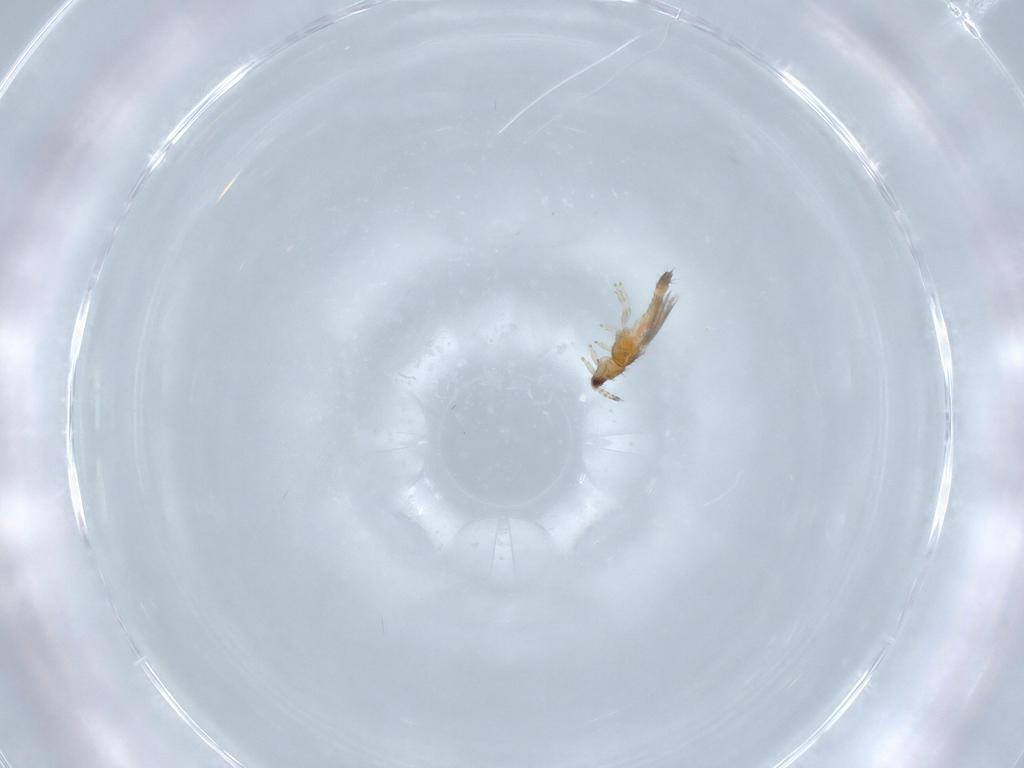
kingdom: Animalia
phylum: Arthropoda
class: Insecta
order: Thysanoptera
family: Thripidae
